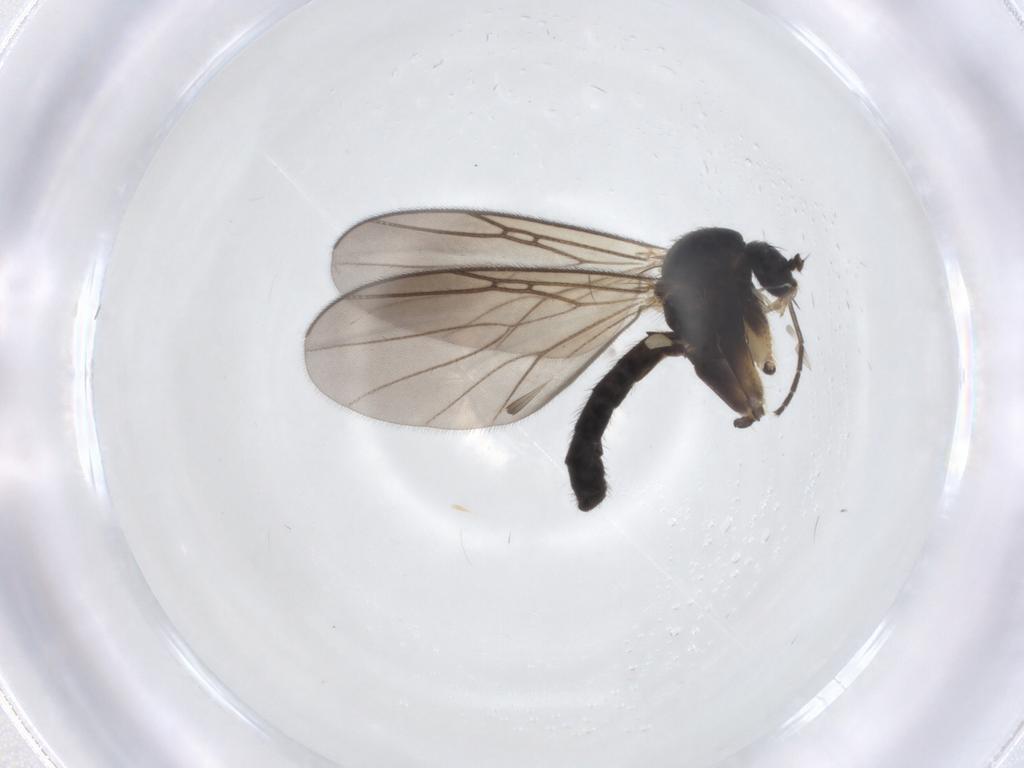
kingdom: Animalia
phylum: Arthropoda
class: Insecta
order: Diptera
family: Mycetophilidae
